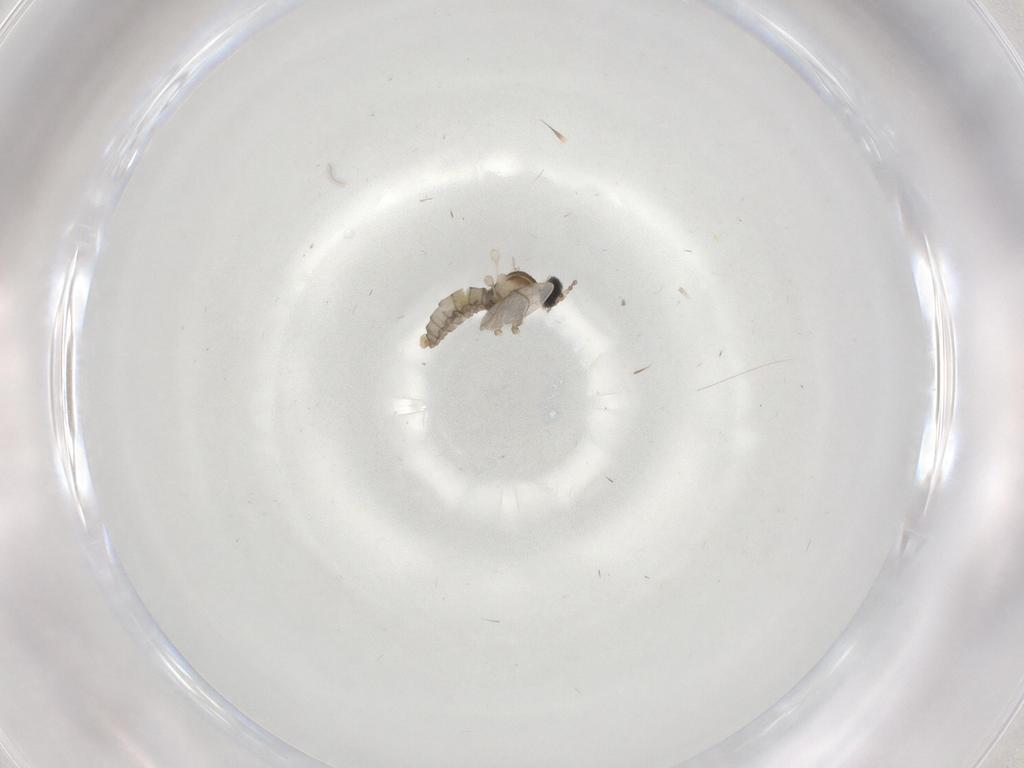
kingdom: Animalia
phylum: Arthropoda
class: Insecta
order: Diptera
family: Cecidomyiidae
